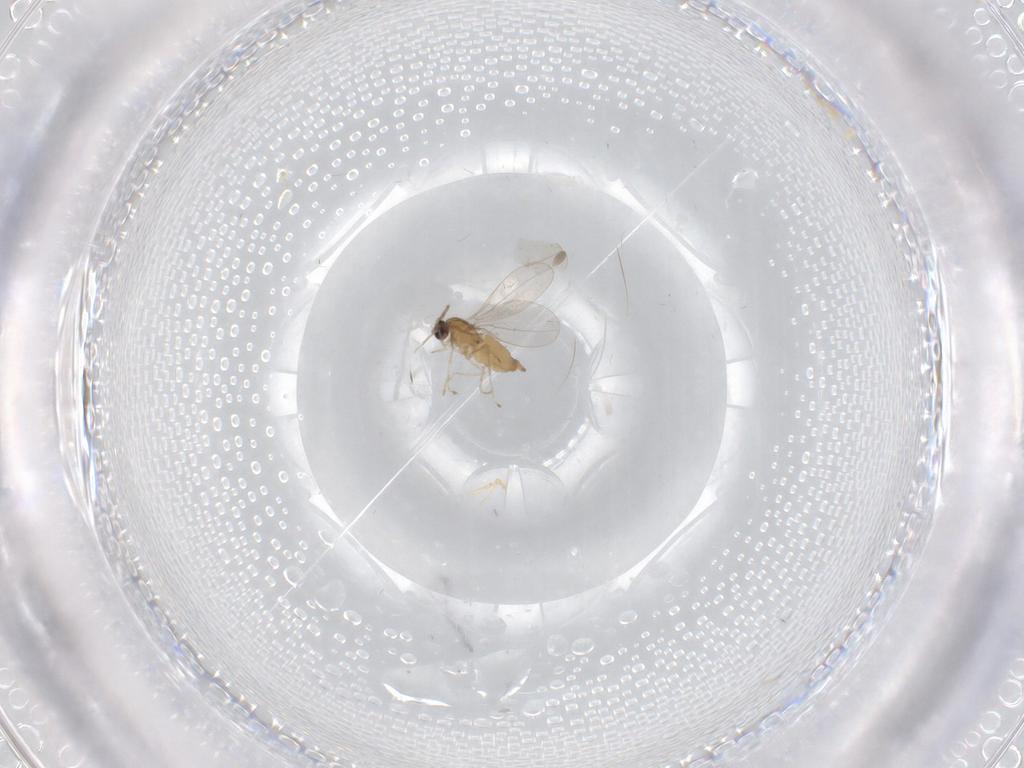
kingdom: Animalia
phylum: Arthropoda
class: Insecta
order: Diptera
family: Cecidomyiidae
